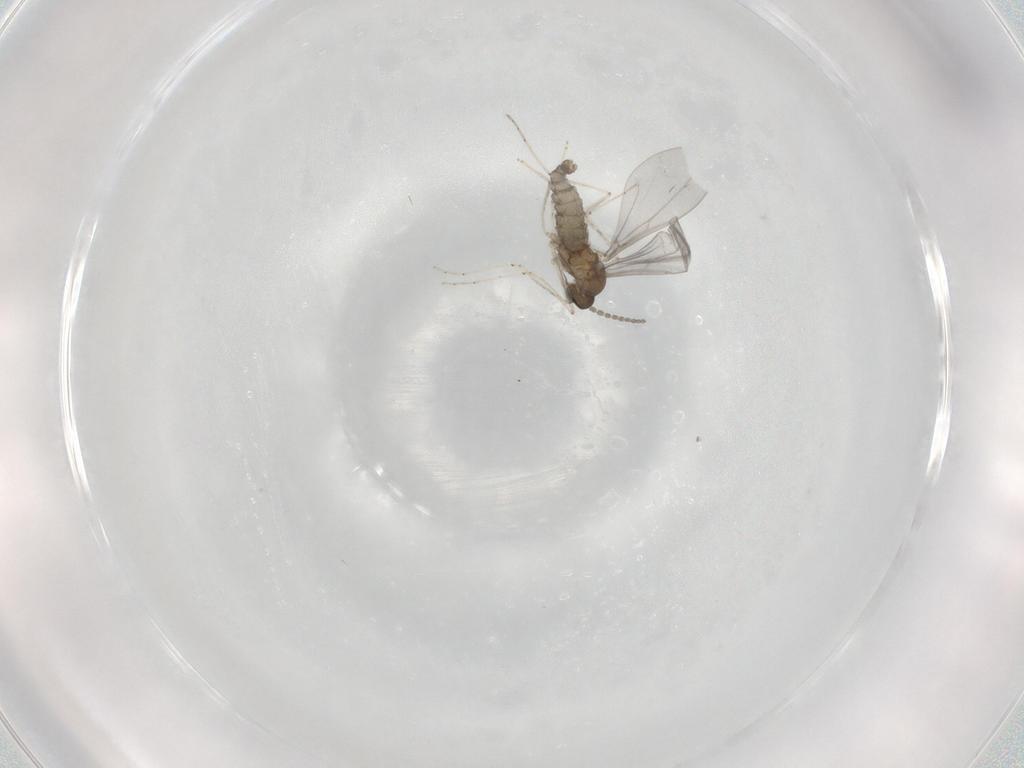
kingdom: Animalia
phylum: Arthropoda
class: Insecta
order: Diptera
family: Cecidomyiidae
